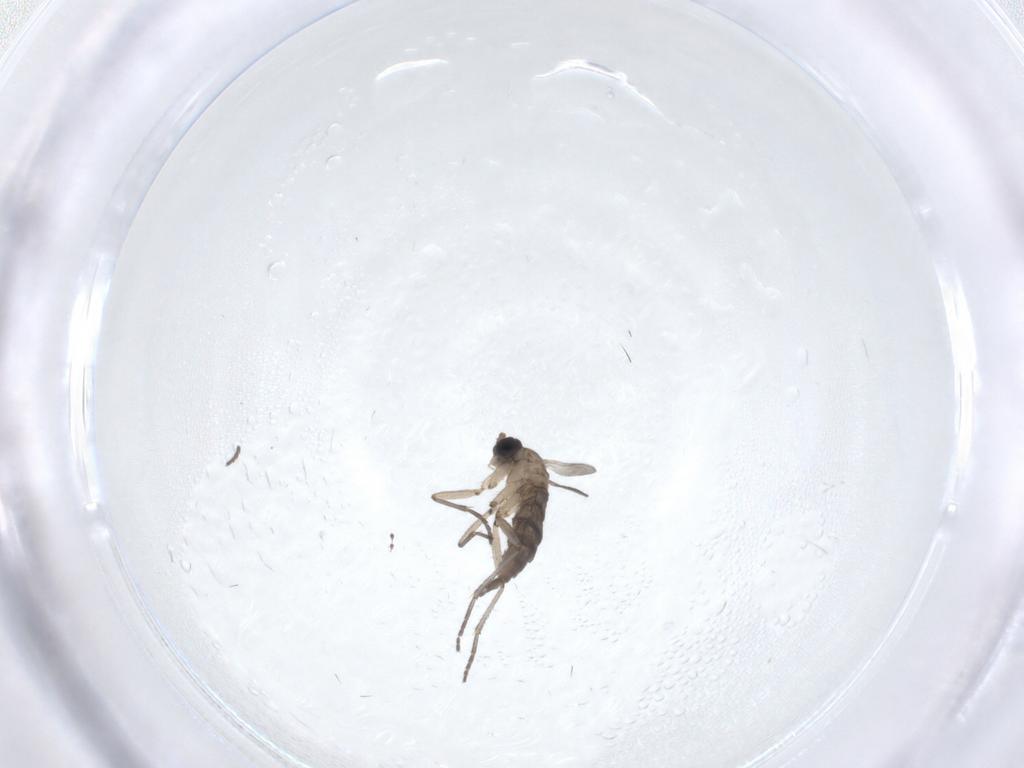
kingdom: Animalia
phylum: Arthropoda
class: Insecta
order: Diptera
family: Sciaridae
